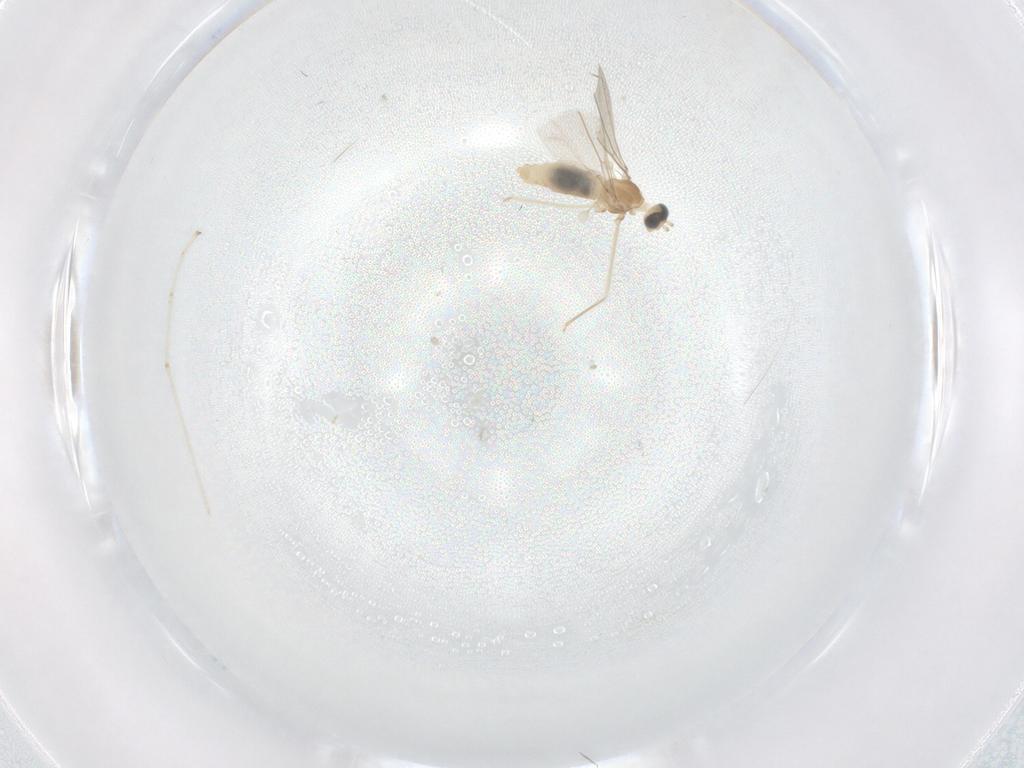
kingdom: Animalia
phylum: Arthropoda
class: Insecta
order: Diptera
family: Cecidomyiidae
